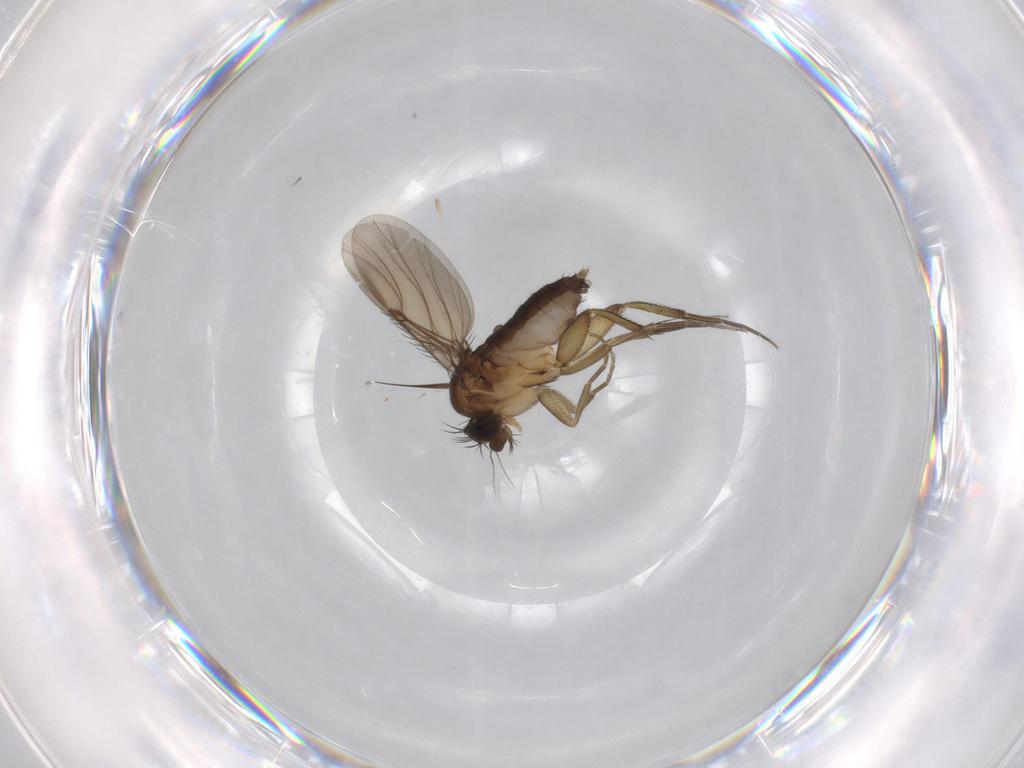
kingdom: Animalia
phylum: Arthropoda
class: Insecta
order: Diptera
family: Phoridae
